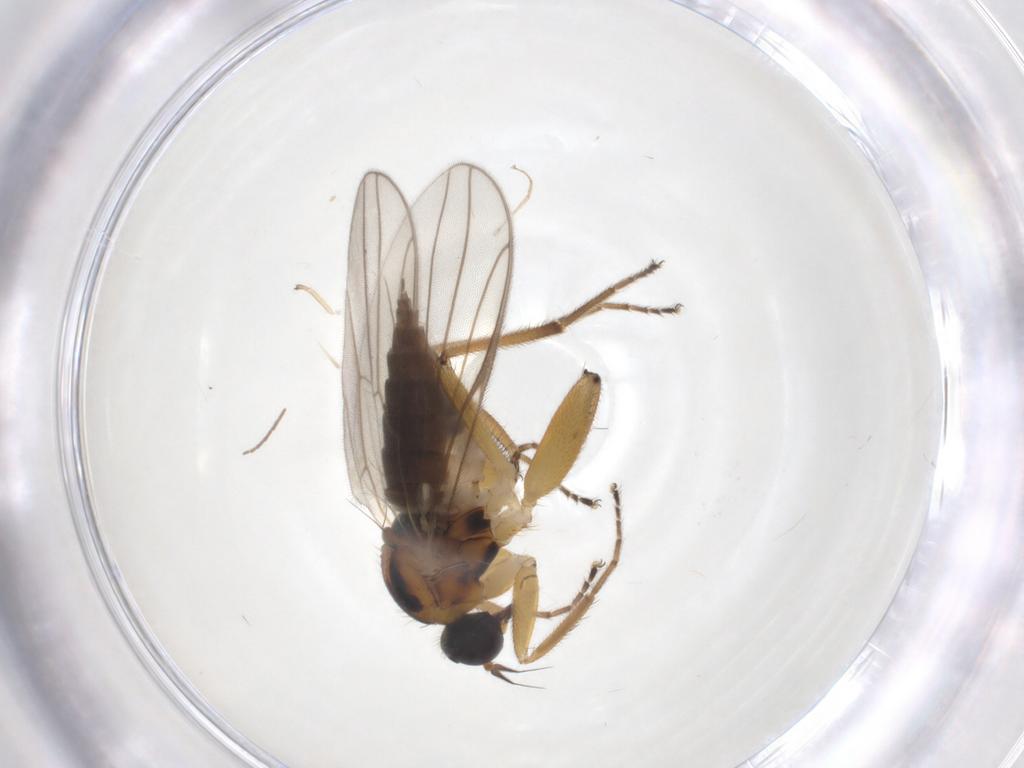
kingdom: Animalia
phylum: Arthropoda
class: Insecta
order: Diptera
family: Hybotidae
